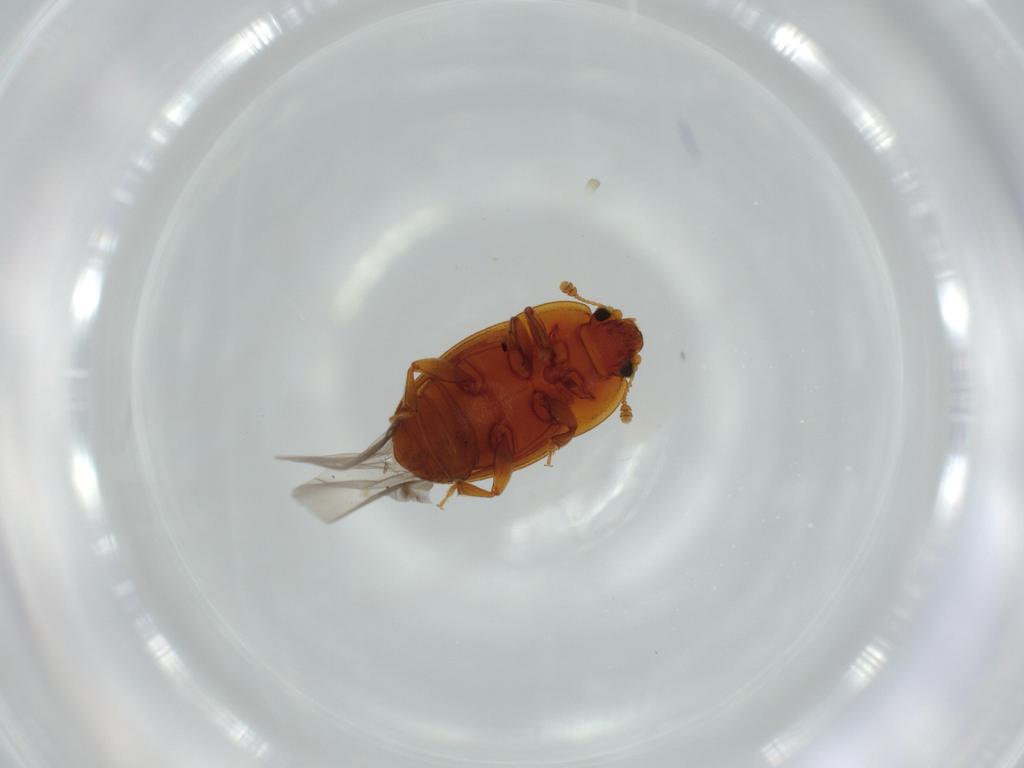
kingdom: Animalia
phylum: Arthropoda
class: Insecta
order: Coleoptera
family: Nitidulidae
